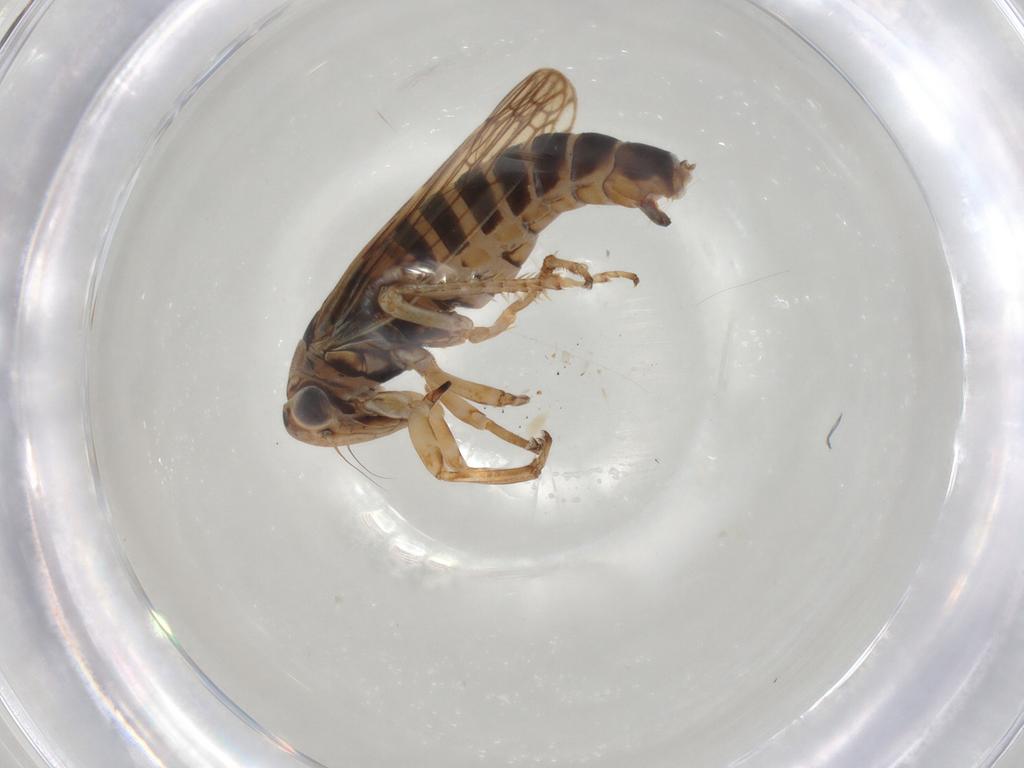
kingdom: Animalia
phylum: Arthropoda
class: Insecta
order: Hemiptera
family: Cicadellidae
